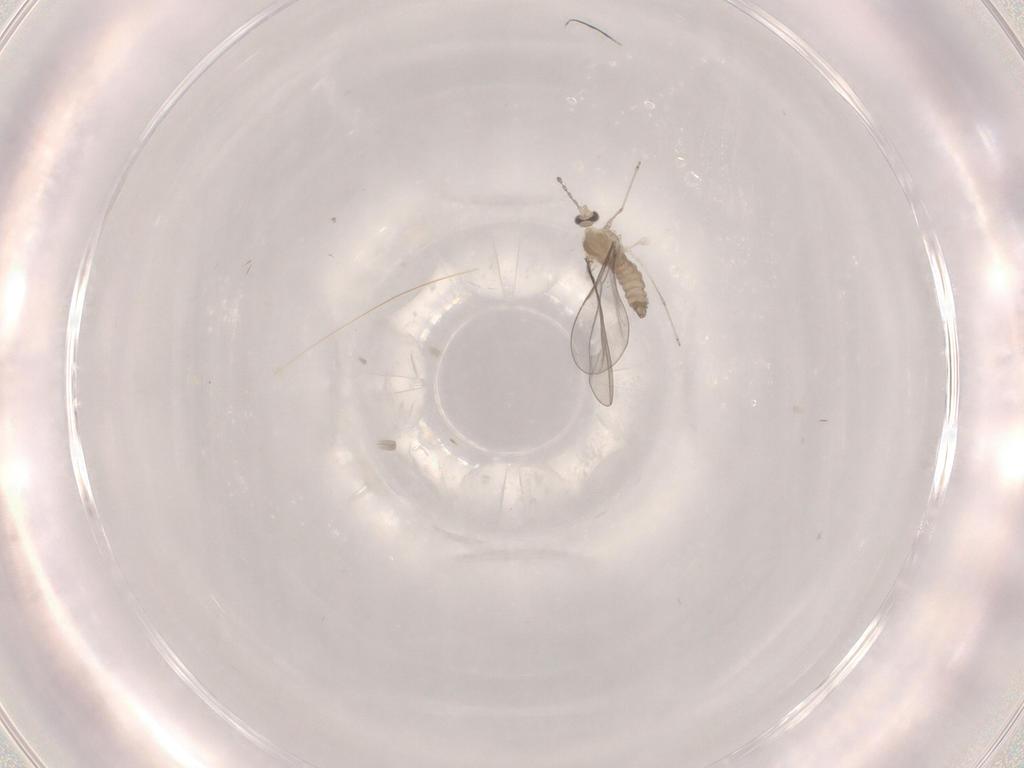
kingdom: Animalia
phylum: Arthropoda
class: Insecta
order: Diptera
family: Cecidomyiidae
